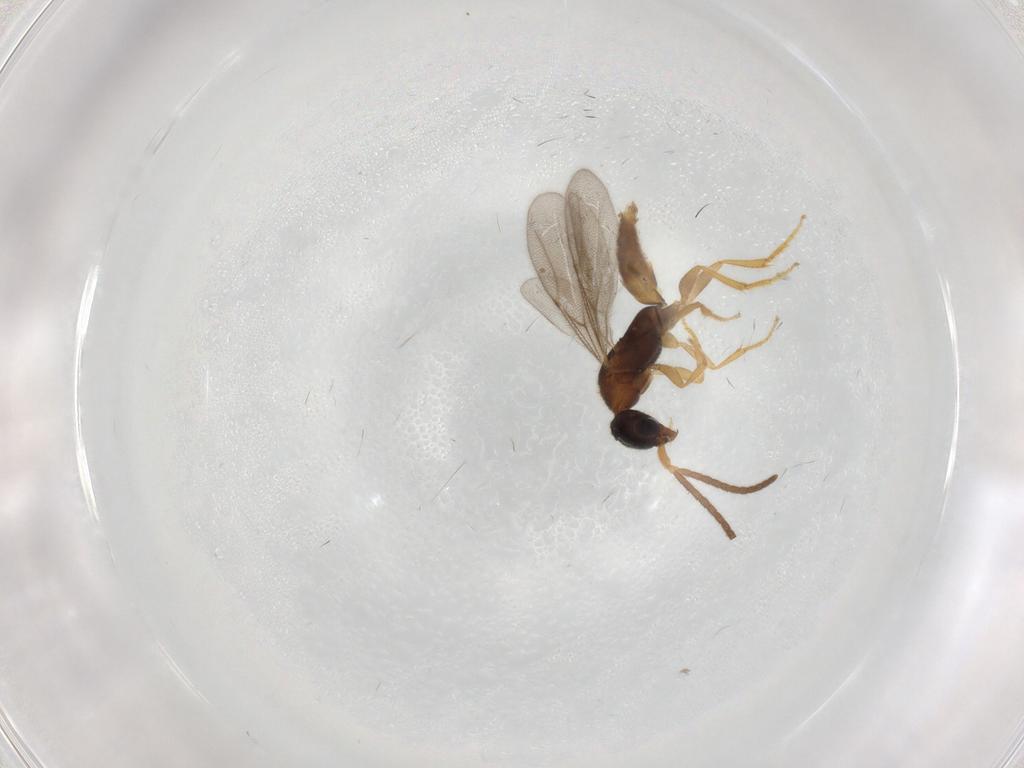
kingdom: Animalia
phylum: Arthropoda
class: Insecta
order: Hymenoptera
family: Bethylidae
